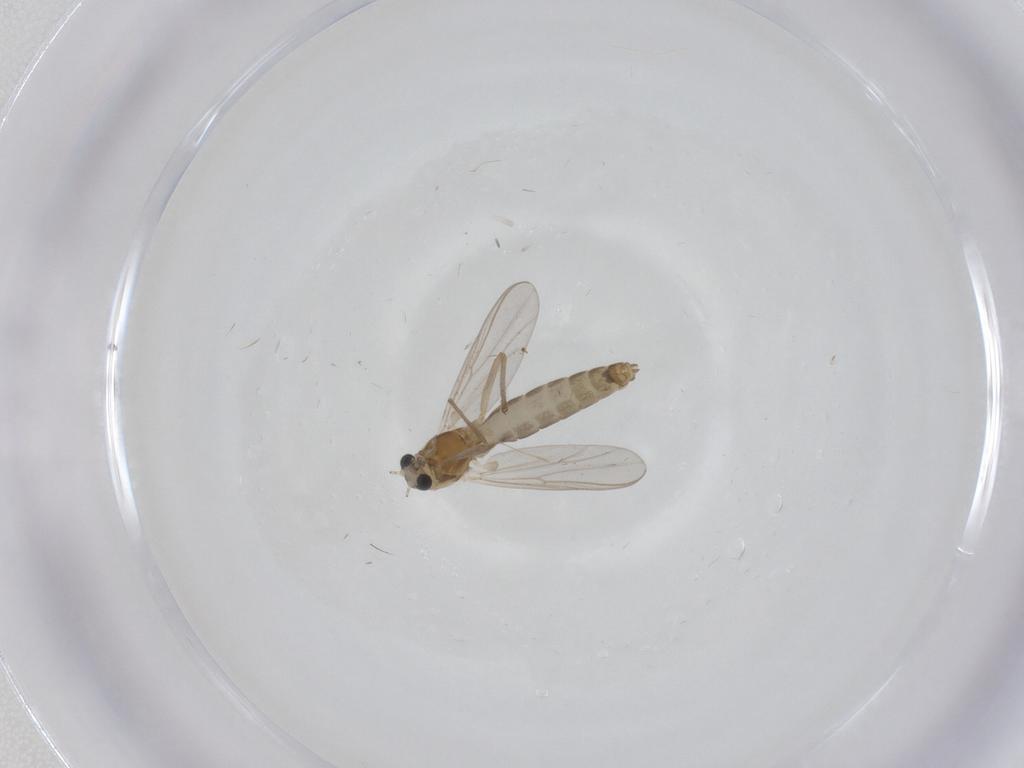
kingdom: Animalia
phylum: Arthropoda
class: Insecta
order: Diptera
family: Chironomidae
